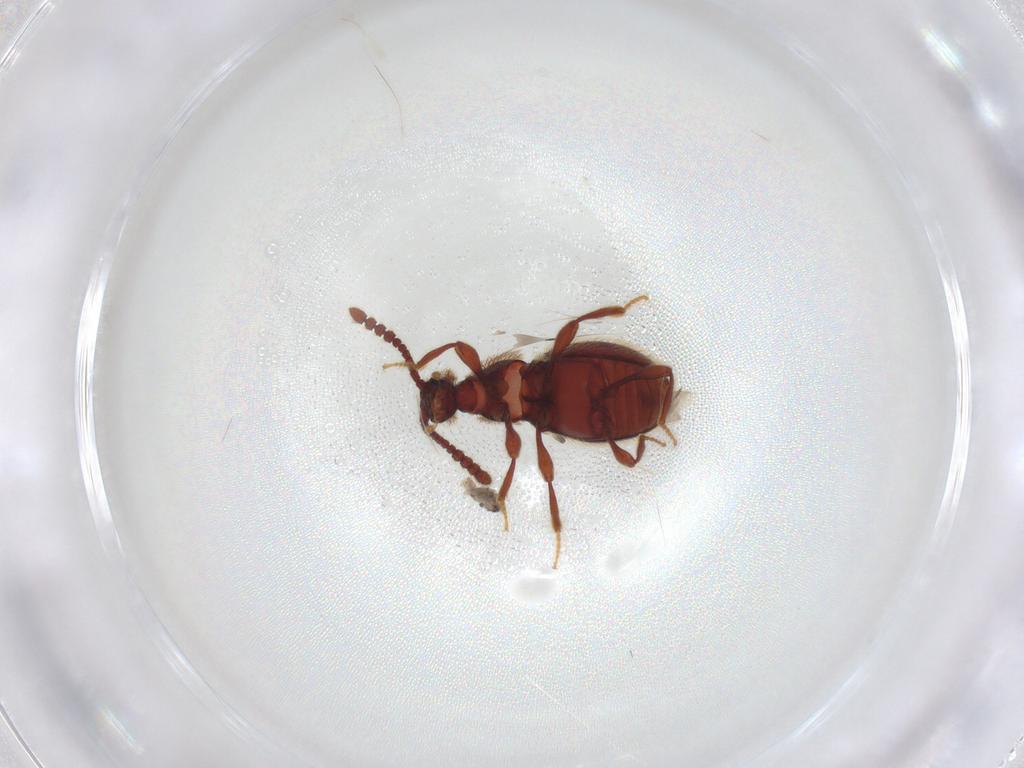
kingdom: Animalia
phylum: Arthropoda
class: Insecta
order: Coleoptera
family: Staphylinidae
